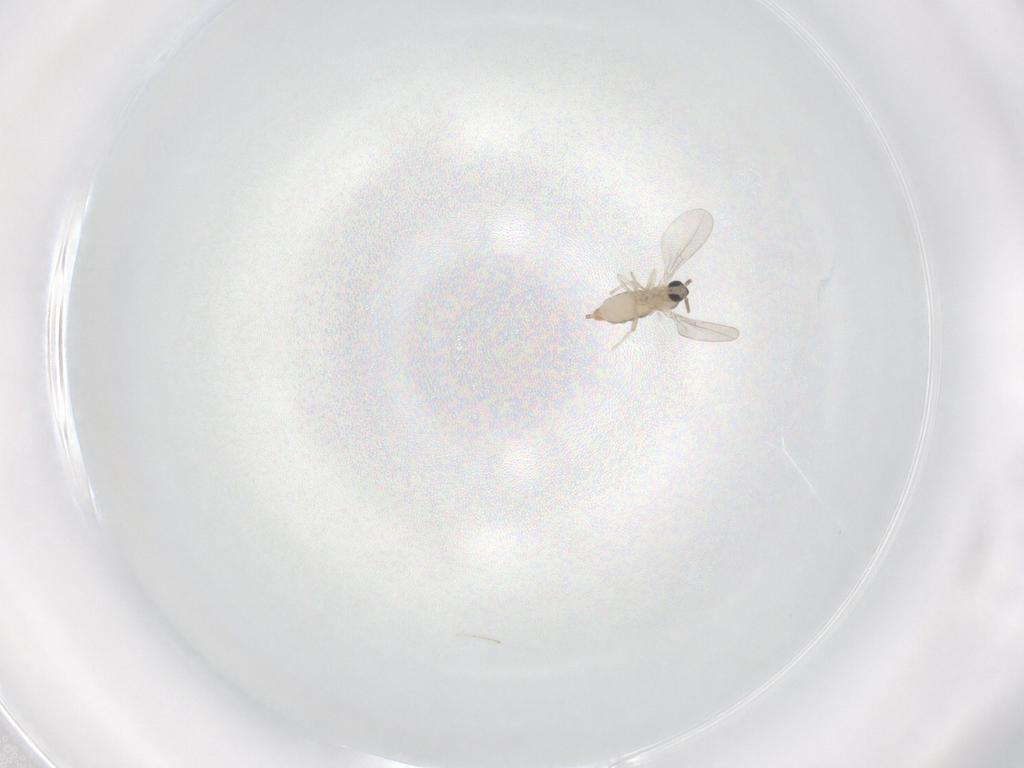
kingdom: Animalia
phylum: Arthropoda
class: Insecta
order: Diptera
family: Cecidomyiidae
